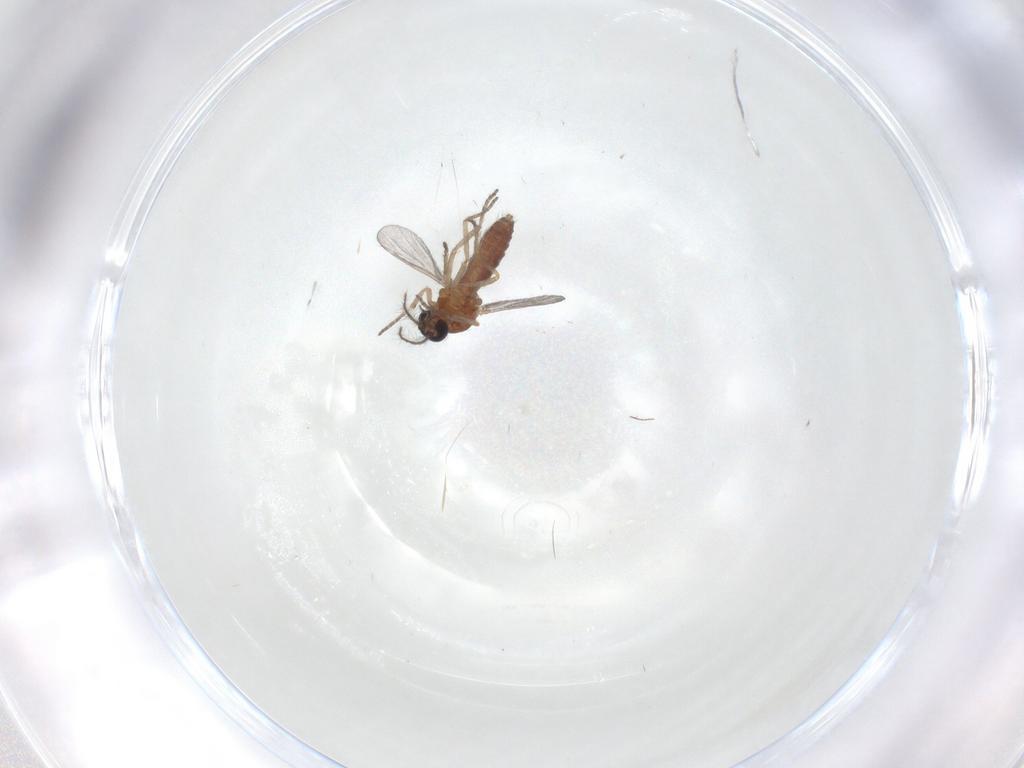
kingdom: Animalia
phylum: Arthropoda
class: Insecta
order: Diptera
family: Ceratopogonidae
